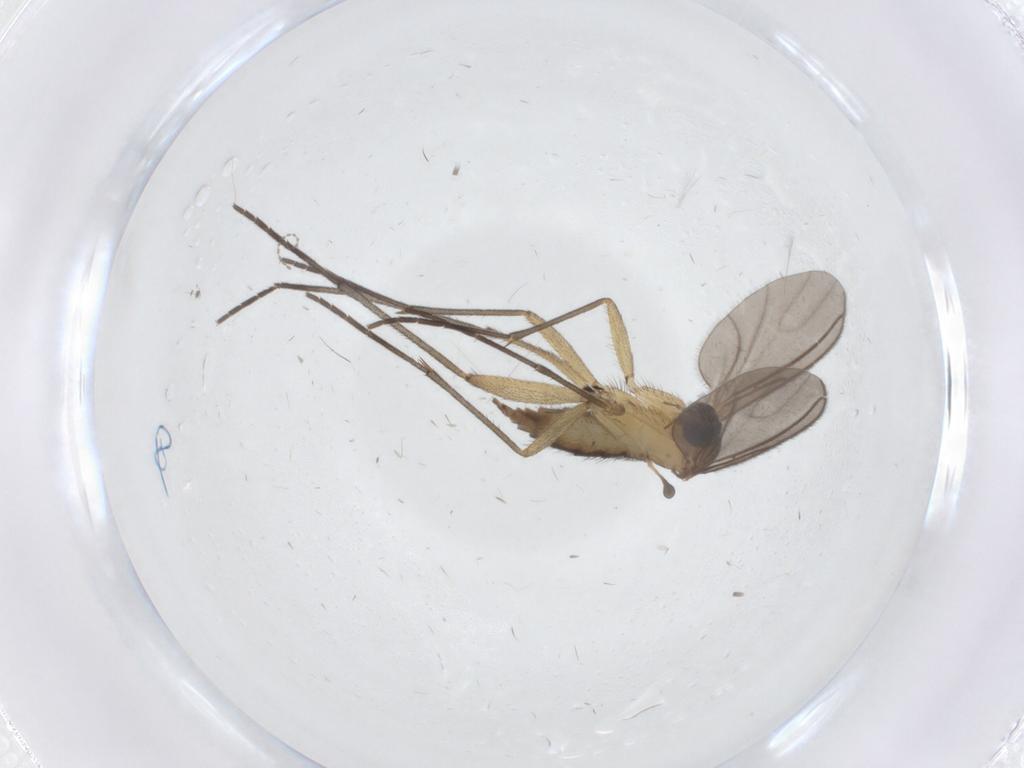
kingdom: Animalia
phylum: Arthropoda
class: Insecta
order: Diptera
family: Sciaridae
